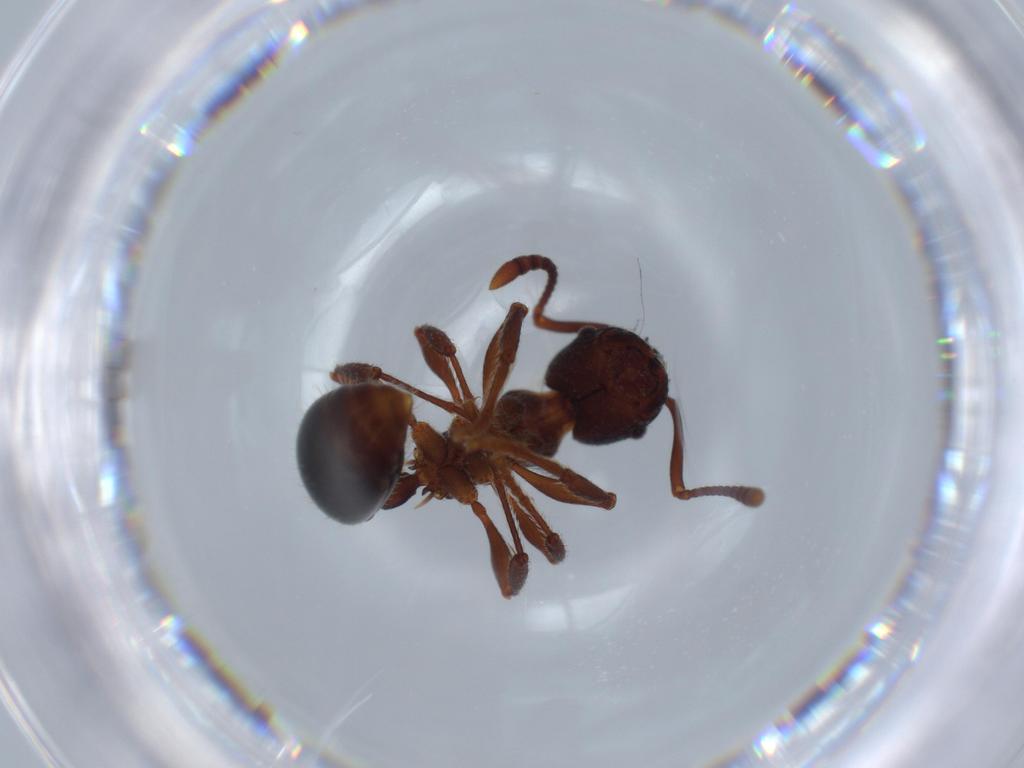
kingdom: Animalia
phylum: Arthropoda
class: Insecta
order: Hymenoptera
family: Formicidae
